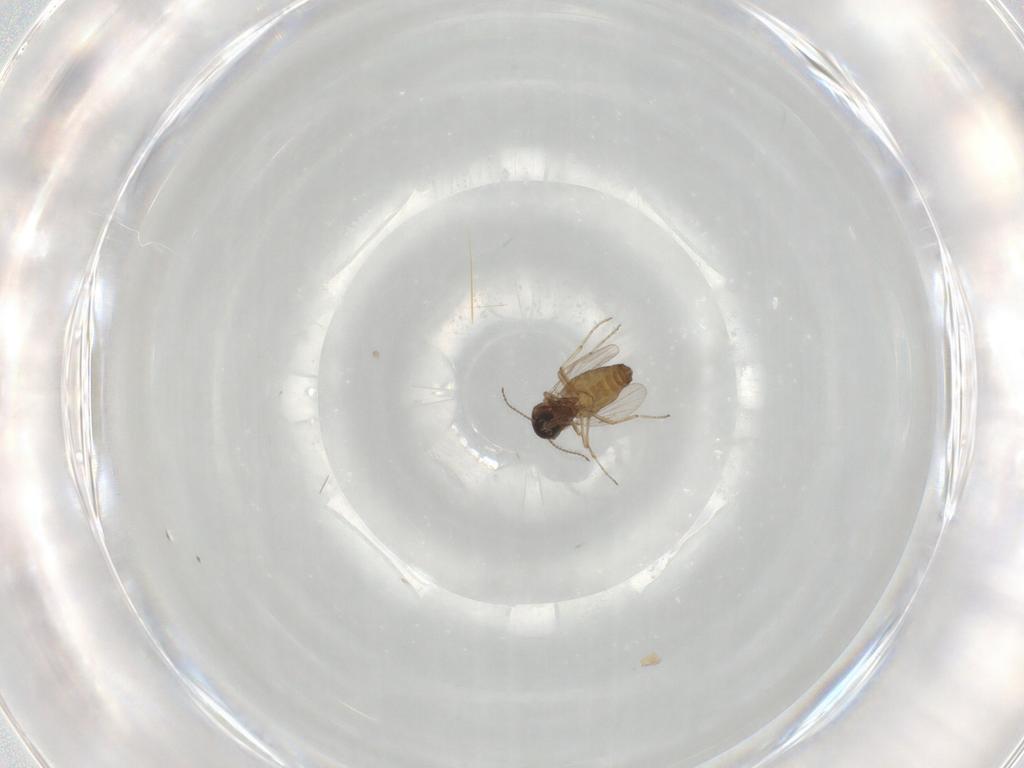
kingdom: Animalia
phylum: Arthropoda
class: Insecta
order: Diptera
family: Ceratopogonidae
